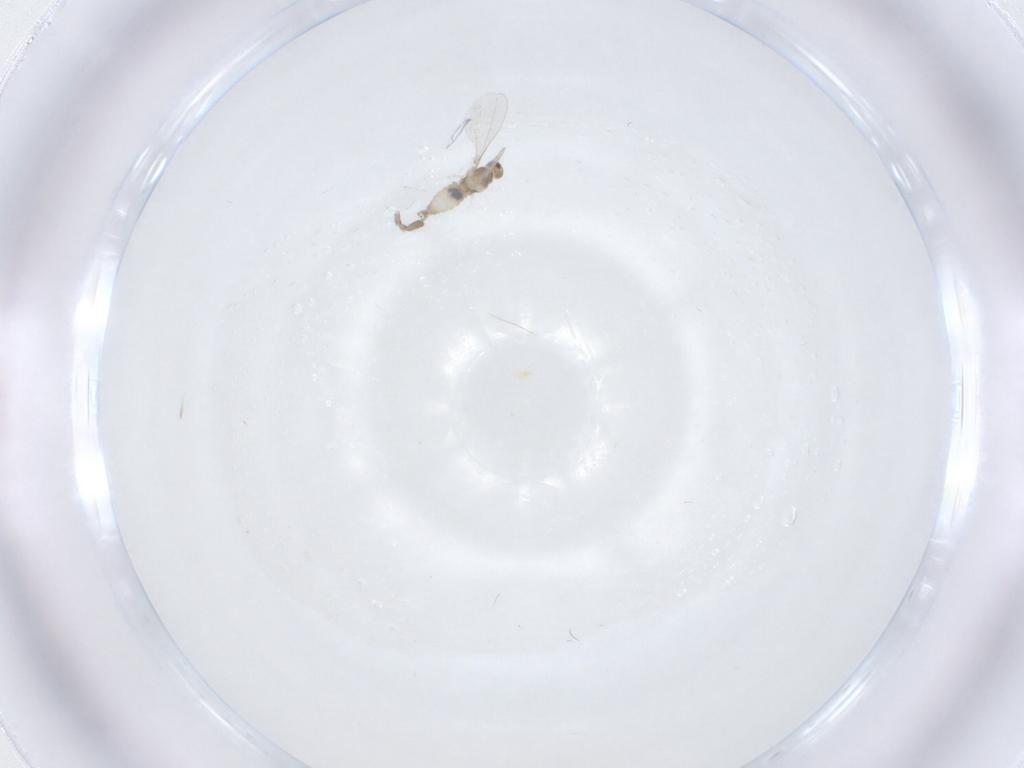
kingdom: Animalia
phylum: Arthropoda
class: Insecta
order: Diptera
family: Cecidomyiidae
